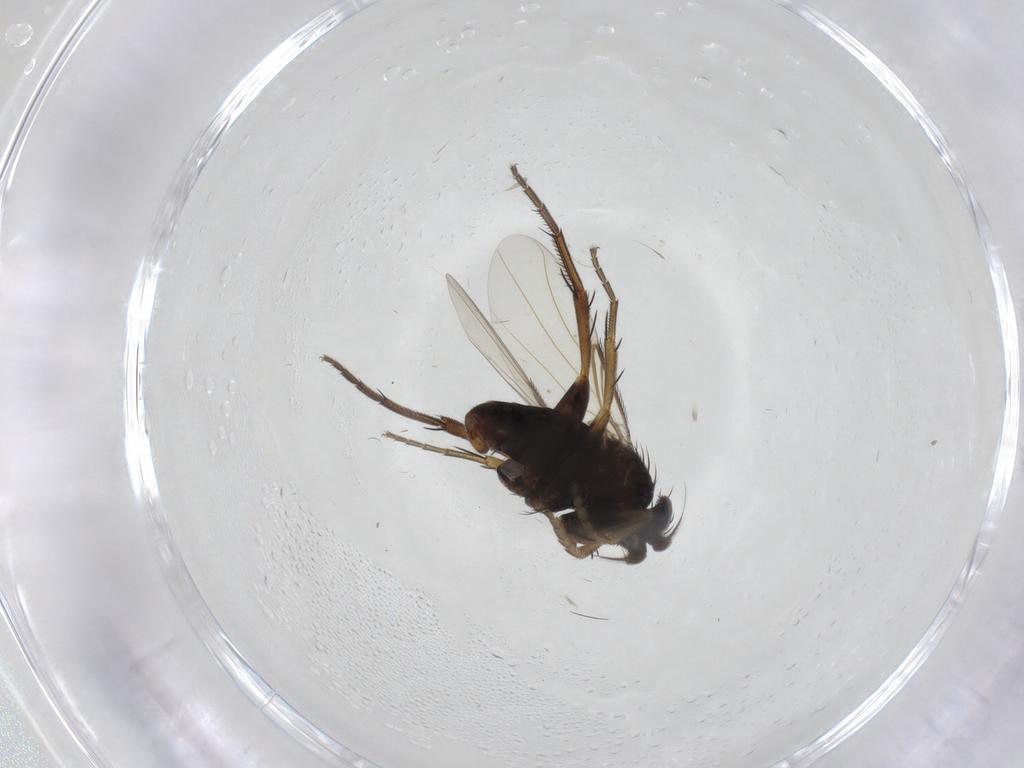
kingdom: Animalia
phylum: Arthropoda
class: Insecta
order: Diptera
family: Phoridae
